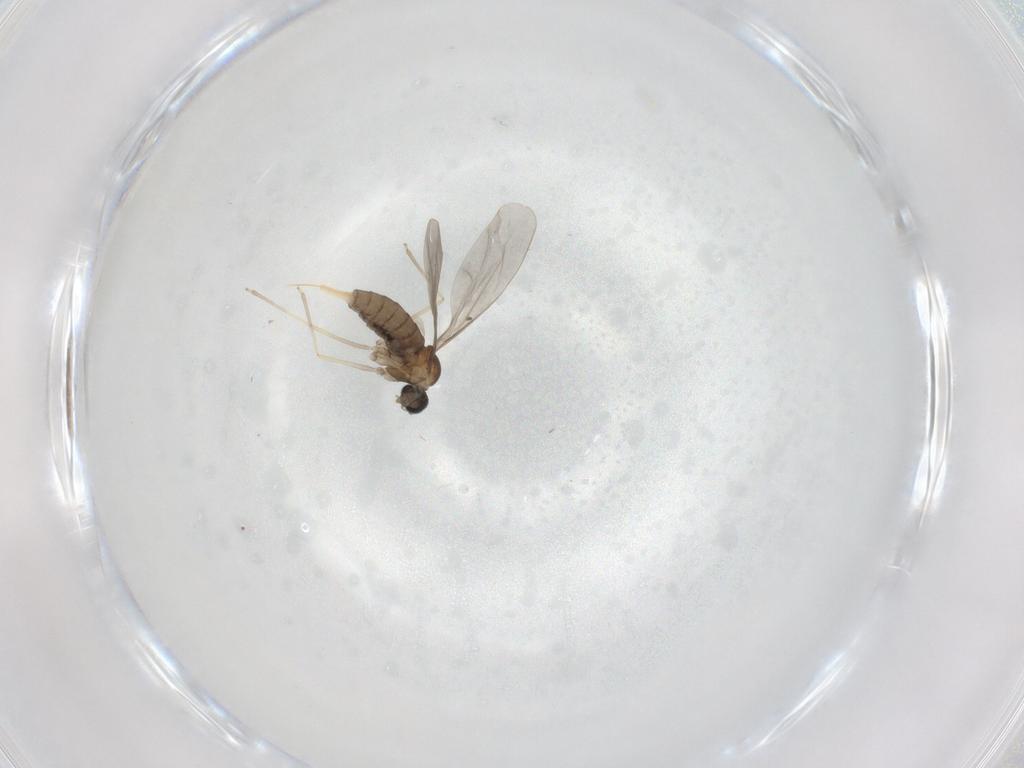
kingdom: Animalia
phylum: Arthropoda
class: Insecta
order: Diptera
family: Cecidomyiidae
